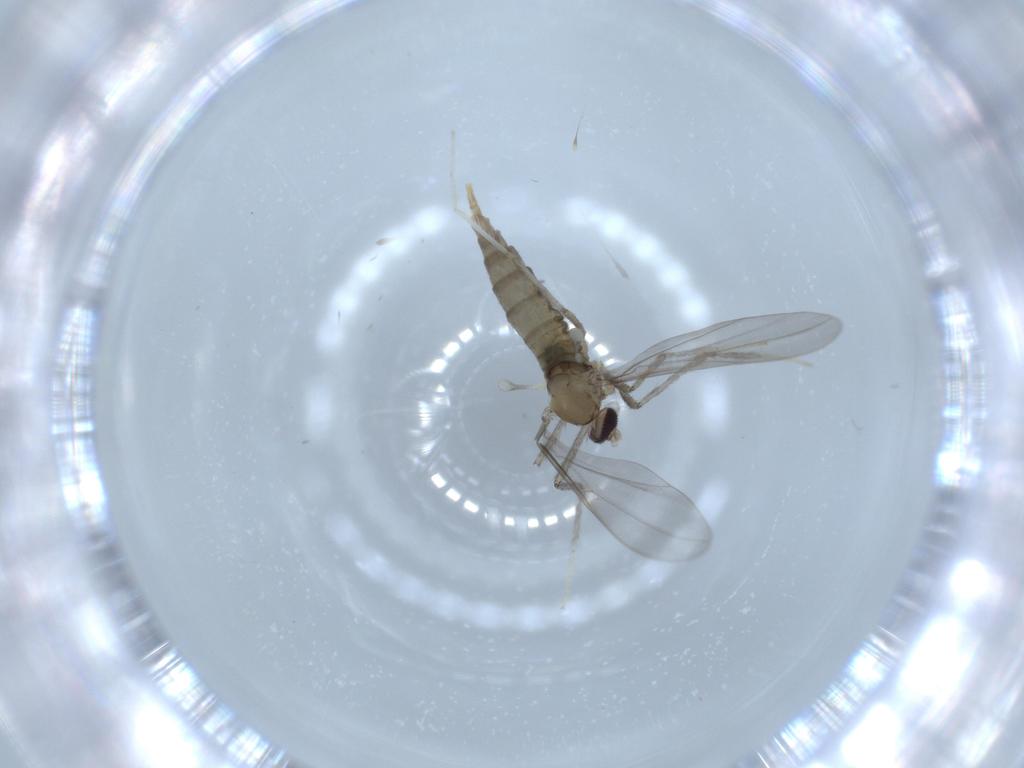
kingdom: Animalia
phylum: Arthropoda
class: Insecta
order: Diptera
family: Cecidomyiidae
